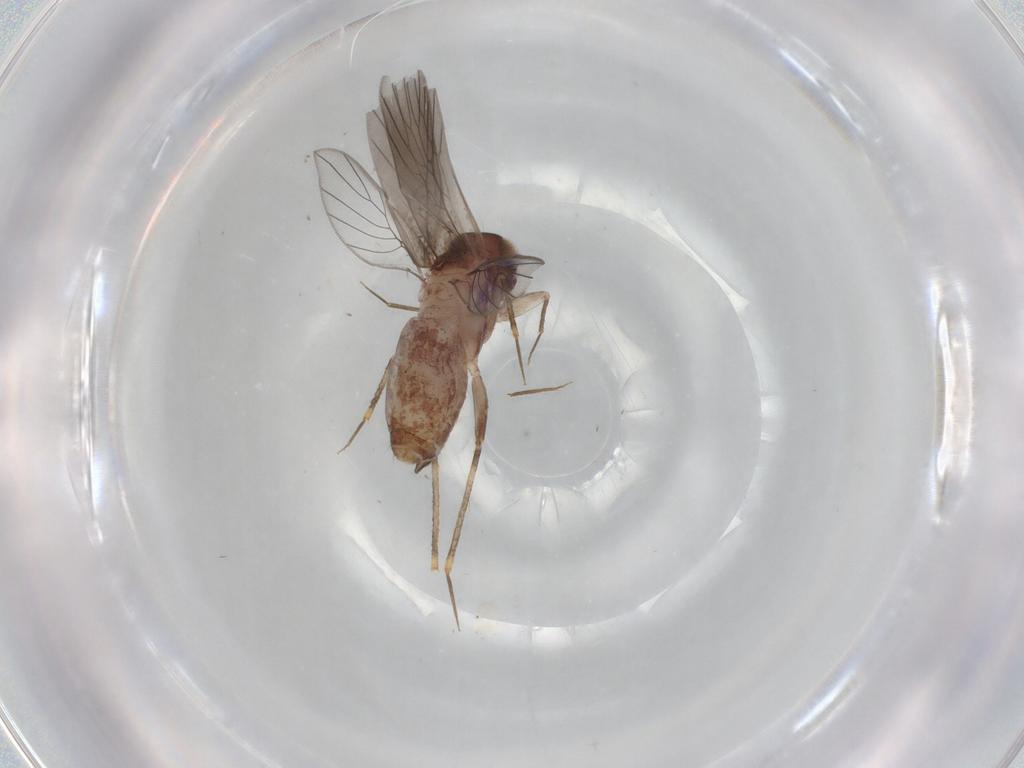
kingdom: Animalia
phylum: Arthropoda
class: Insecta
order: Psocodea
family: Lepidopsocidae
